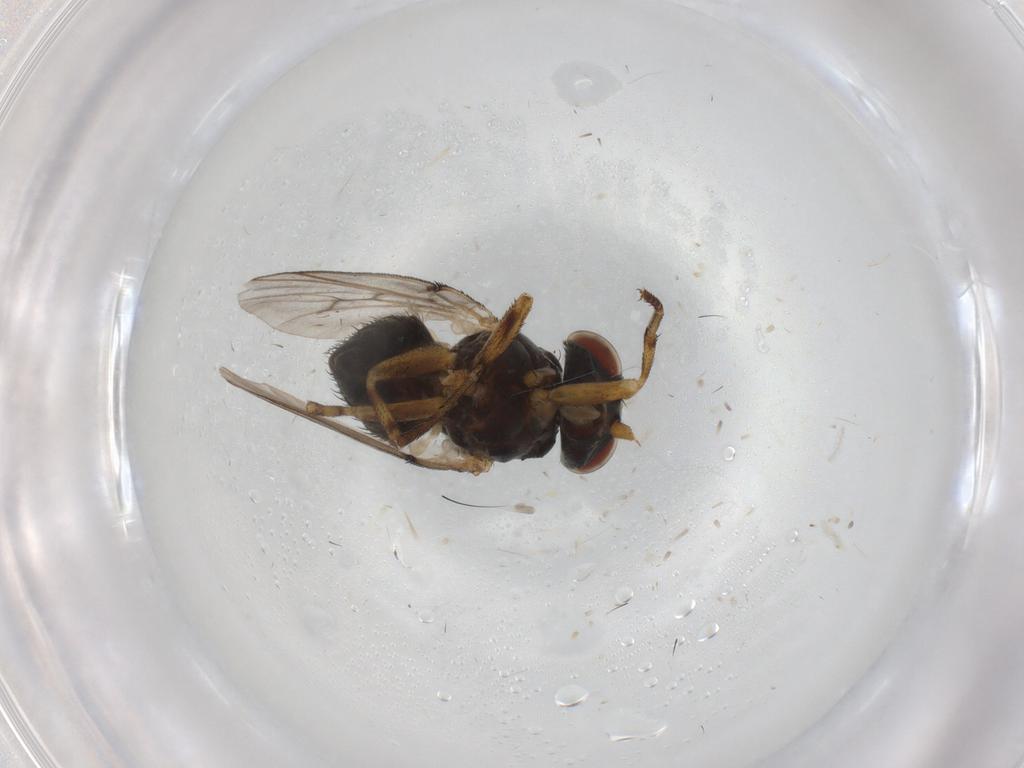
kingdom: Animalia
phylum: Arthropoda
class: Insecta
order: Diptera
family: Odiniidae
